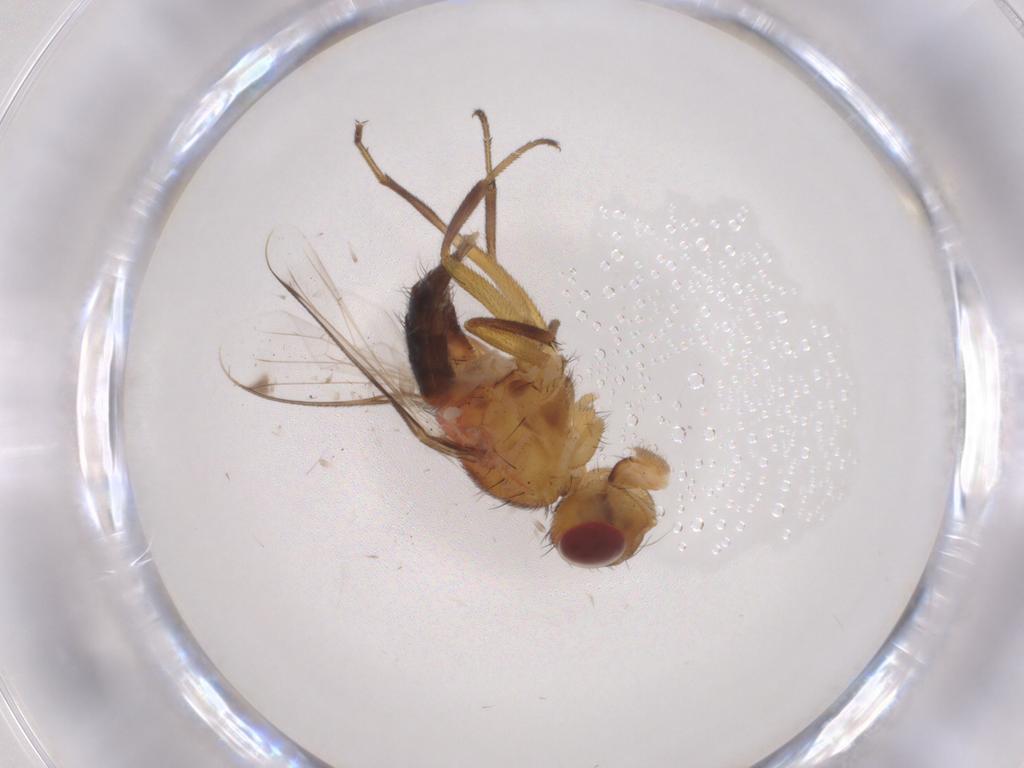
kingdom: Animalia
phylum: Arthropoda
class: Insecta
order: Diptera
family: Richardiidae
